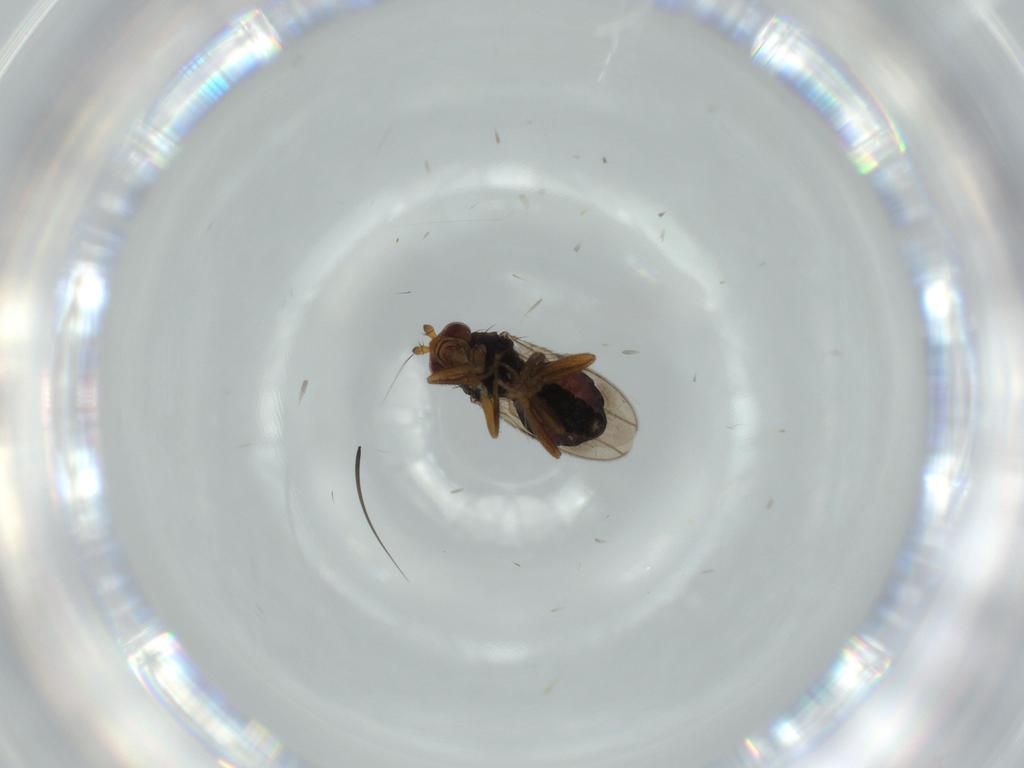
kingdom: Animalia
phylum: Arthropoda
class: Insecta
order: Diptera
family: Sphaeroceridae
